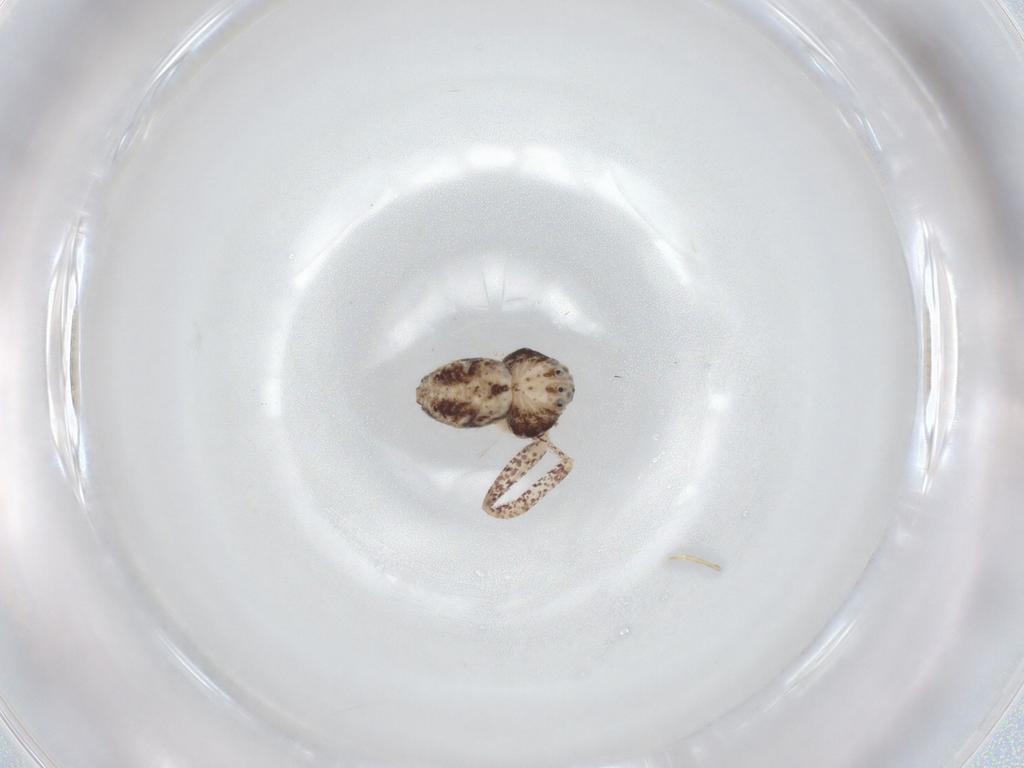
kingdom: Animalia
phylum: Arthropoda
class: Arachnida
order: Araneae
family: Philodromidae
